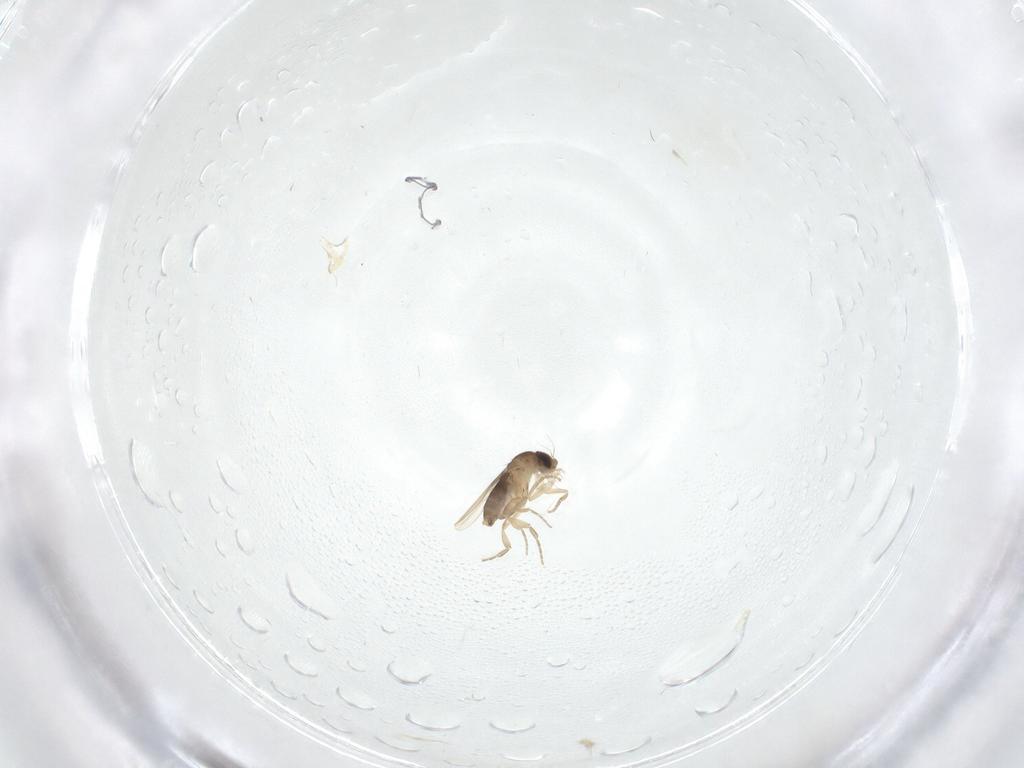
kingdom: Animalia
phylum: Arthropoda
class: Insecta
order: Diptera
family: Cecidomyiidae
